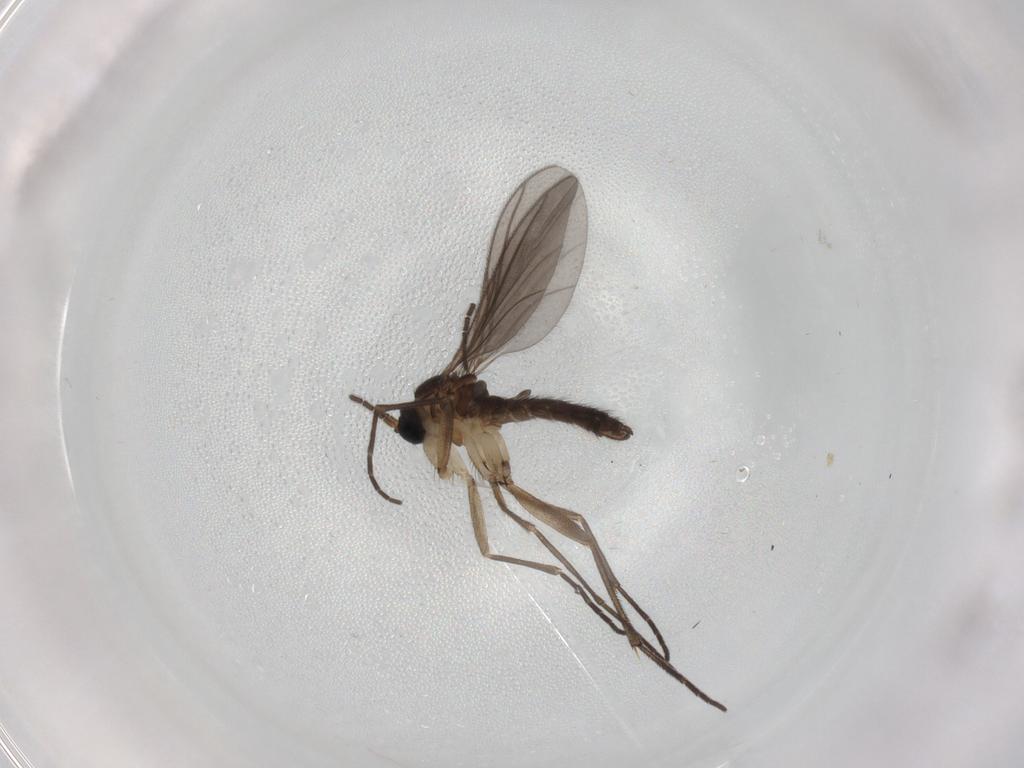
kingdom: Animalia
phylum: Arthropoda
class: Insecta
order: Diptera
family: Sciaridae
